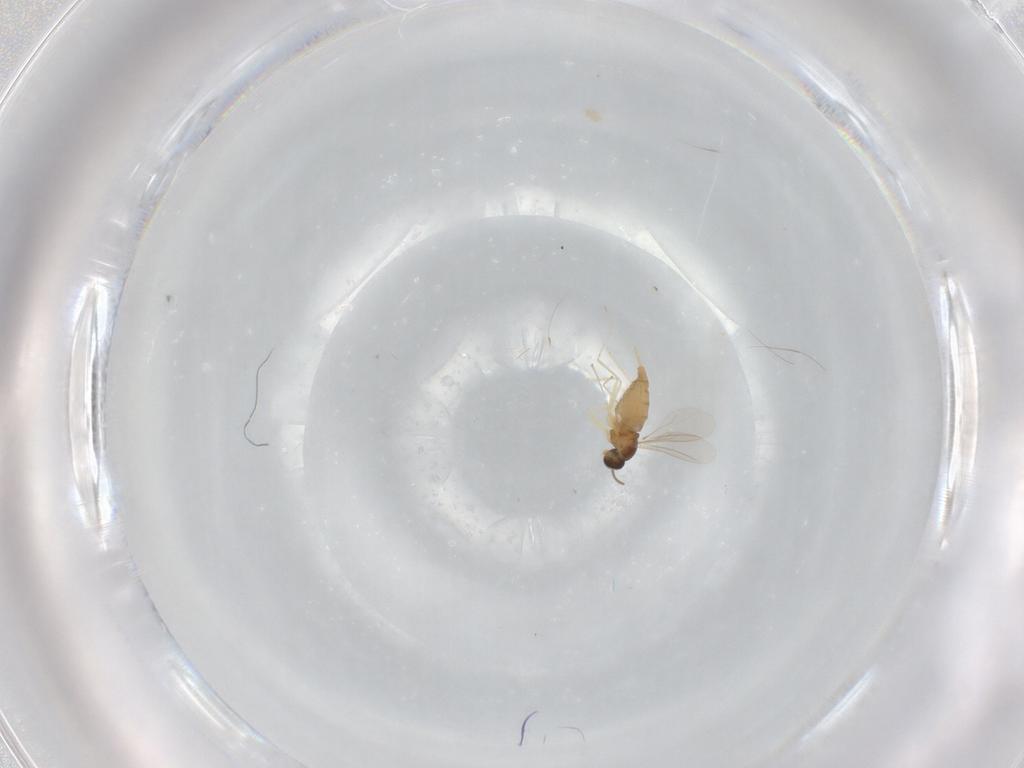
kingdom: Animalia
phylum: Arthropoda
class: Insecta
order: Diptera
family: Cecidomyiidae
